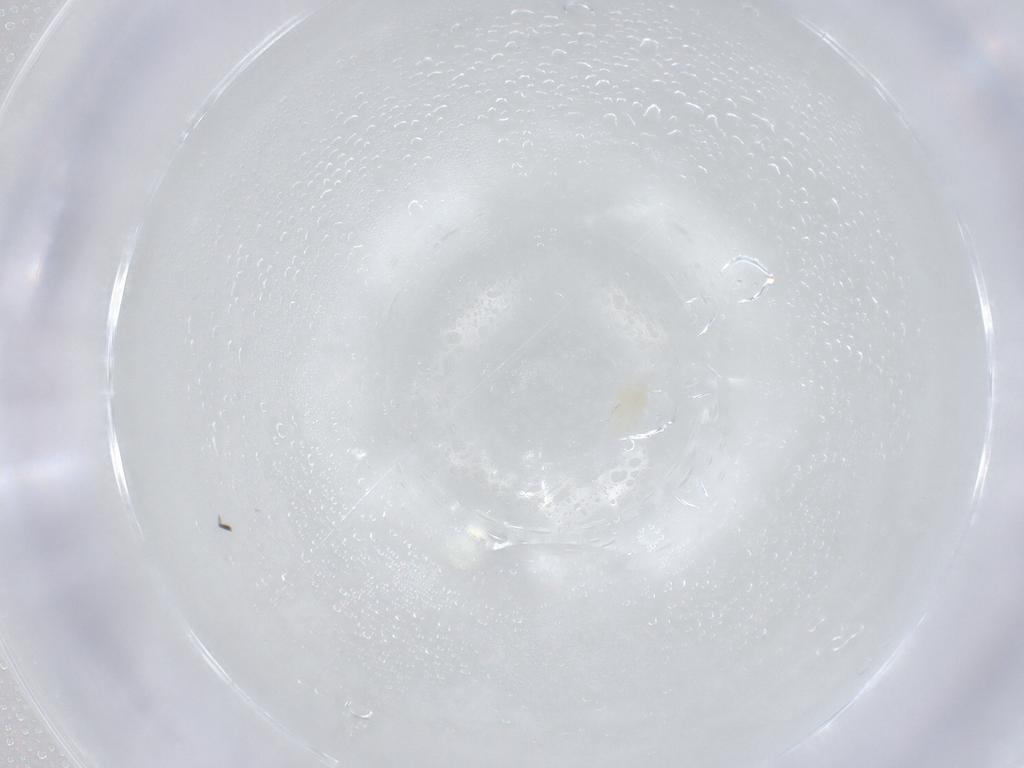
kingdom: Animalia
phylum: Arthropoda
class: Arachnida
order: Trombidiformes
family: Eupodidae
